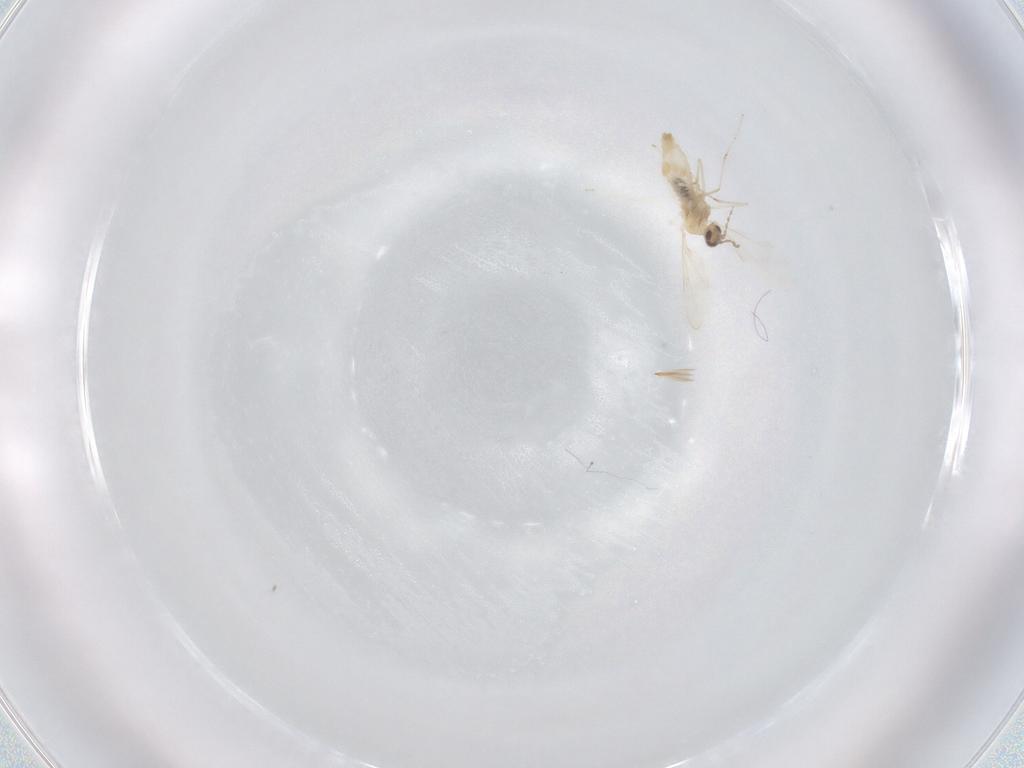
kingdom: Animalia
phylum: Arthropoda
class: Insecta
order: Diptera
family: Cecidomyiidae
